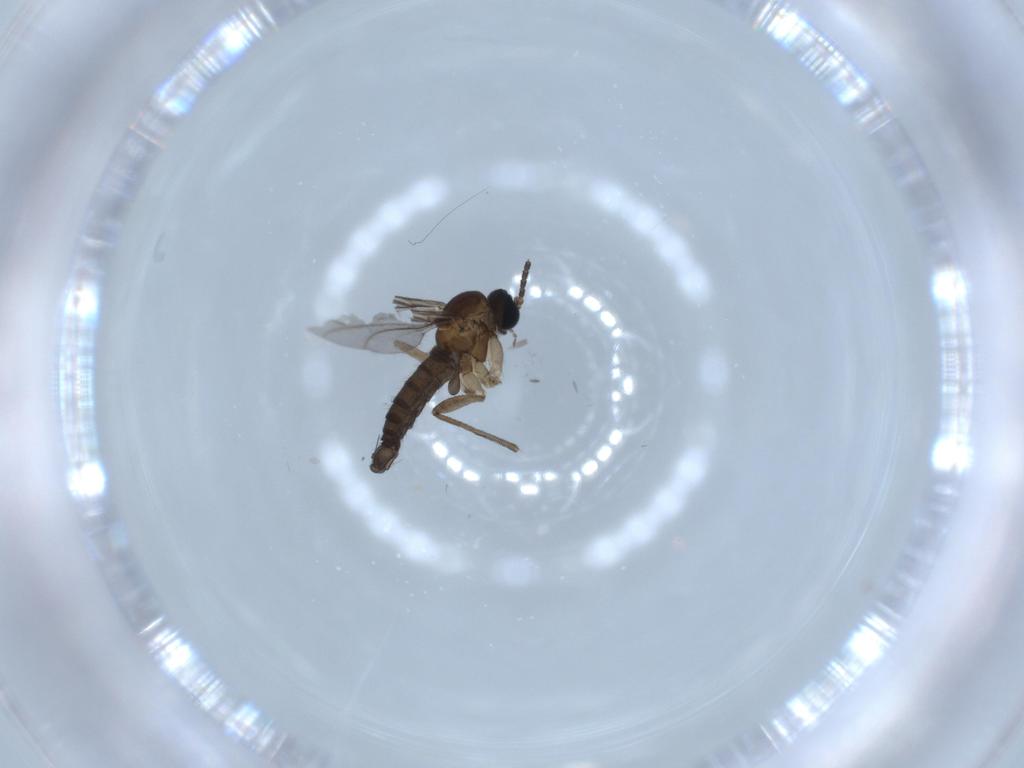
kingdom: Animalia
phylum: Arthropoda
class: Insecta
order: Diptera
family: Sciaridae
